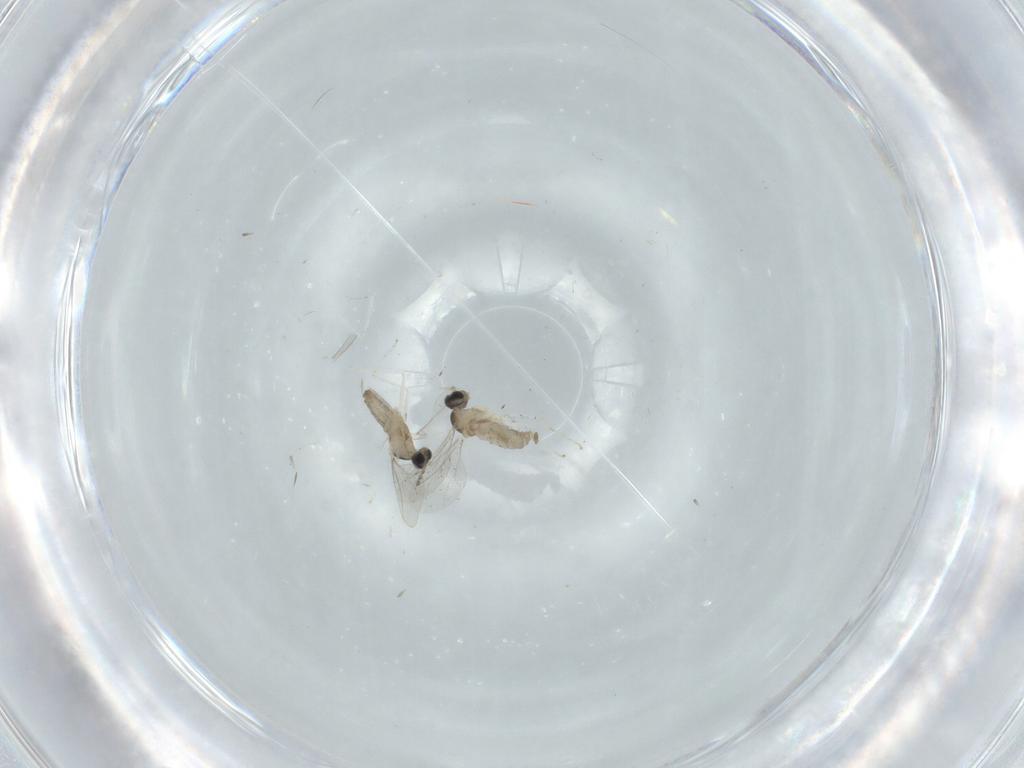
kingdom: Animalia
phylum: Arthropoda
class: Insecta
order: Diptera
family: Cecidomyiidae
